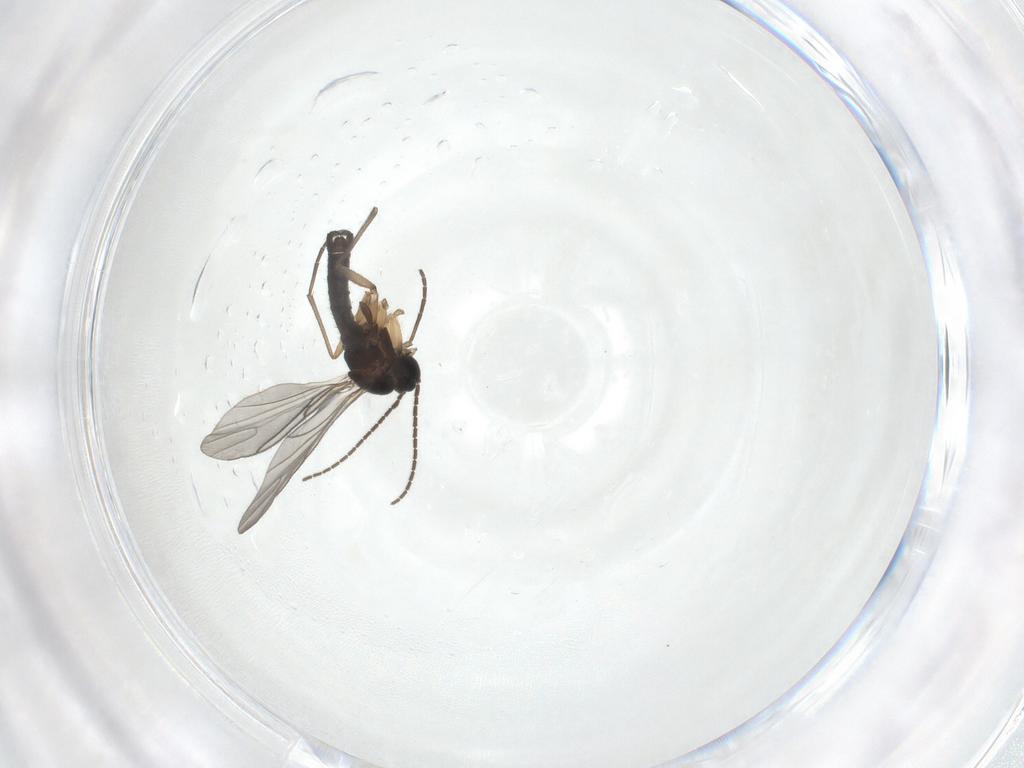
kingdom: Animalia
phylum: Arthropoda
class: Insecta
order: Diptera
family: Sciaridae
